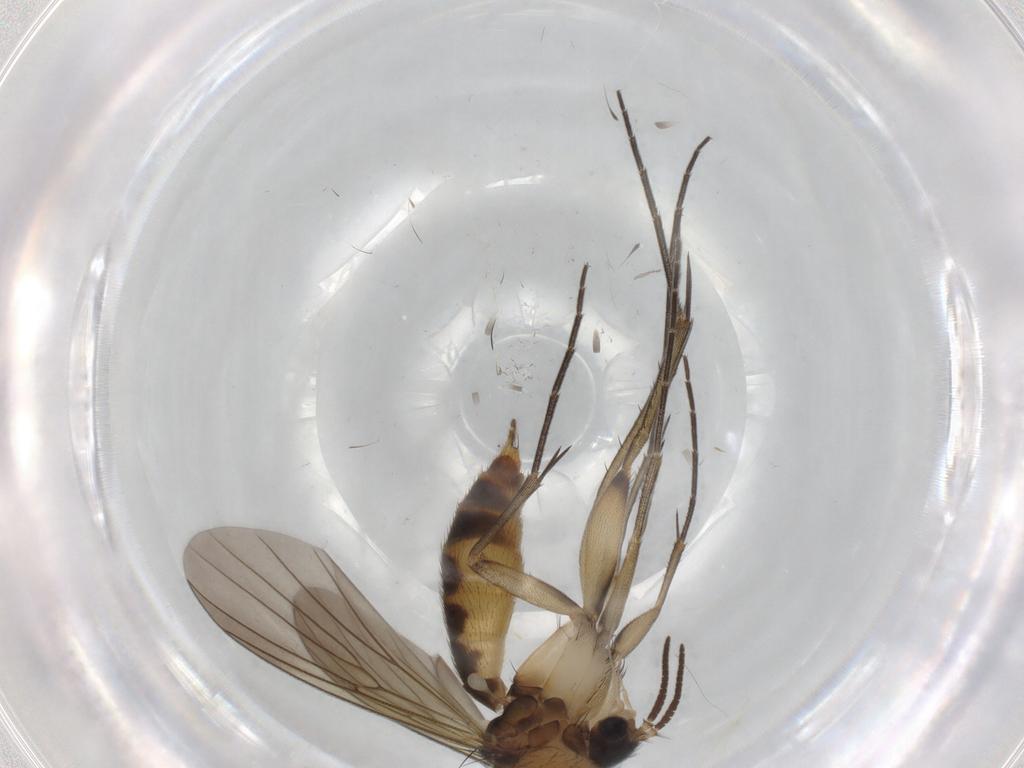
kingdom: Animalia
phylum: Arthropoda
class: Insecta
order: Diptera
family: Mycetophilidae
